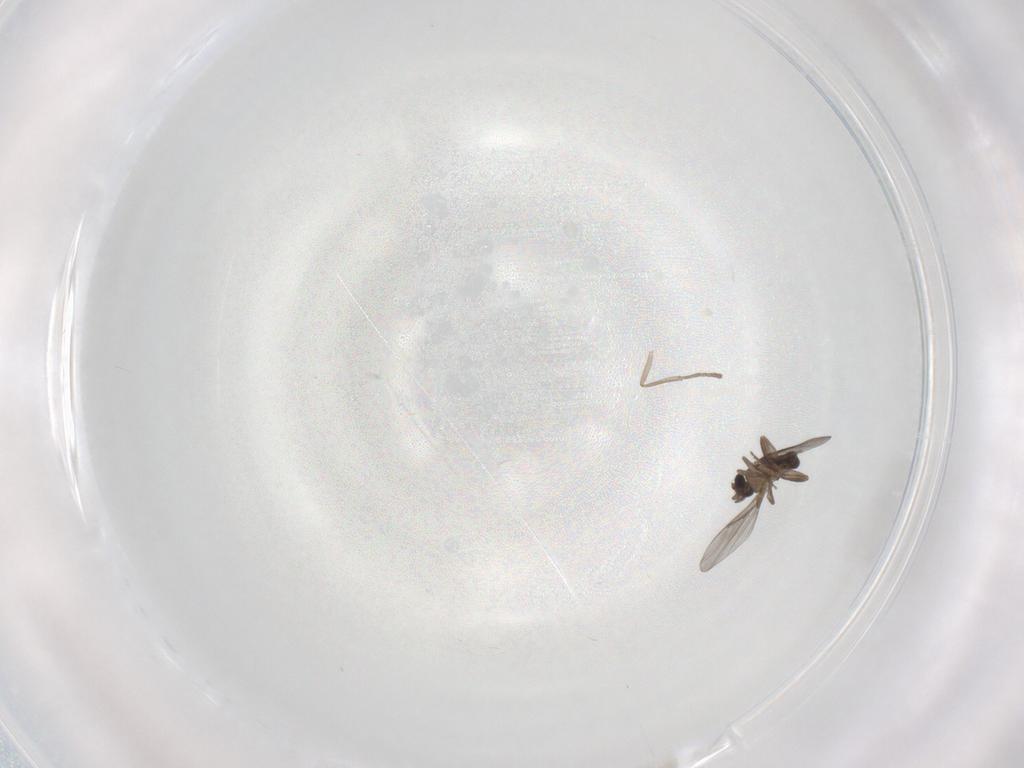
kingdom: Animalia
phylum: Arthropoda
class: Insecta
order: Diptera
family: Psychodidae
